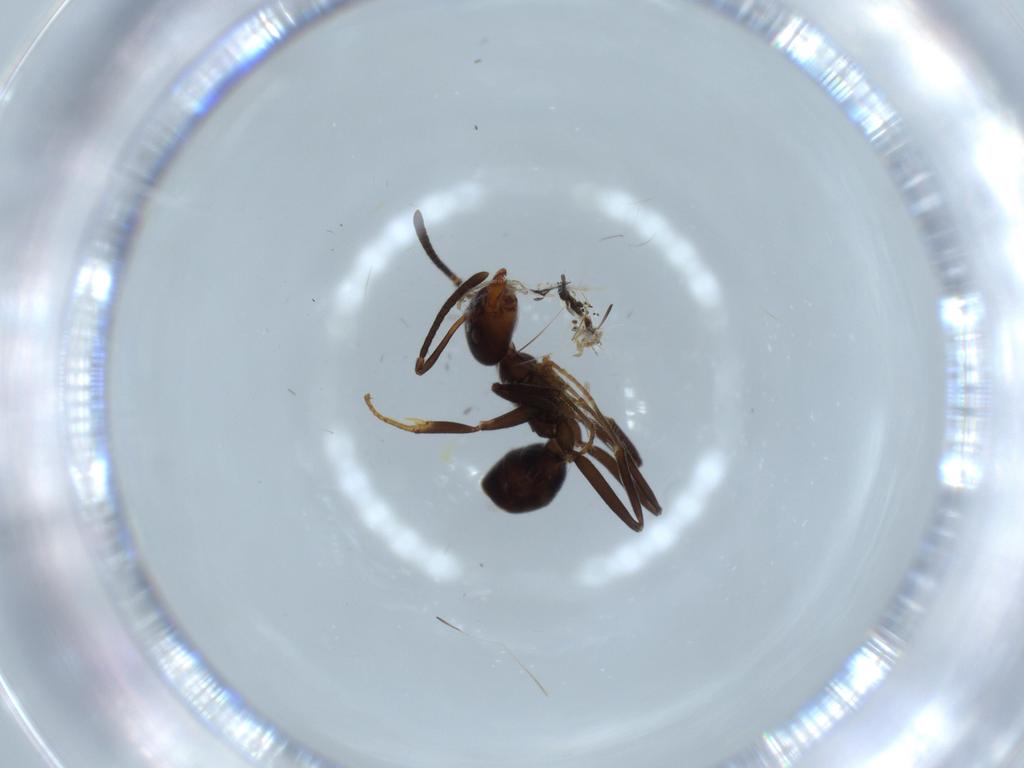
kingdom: Animalia
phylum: Arthropoda
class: Insecta
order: Hymenoptera
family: Formicidae
